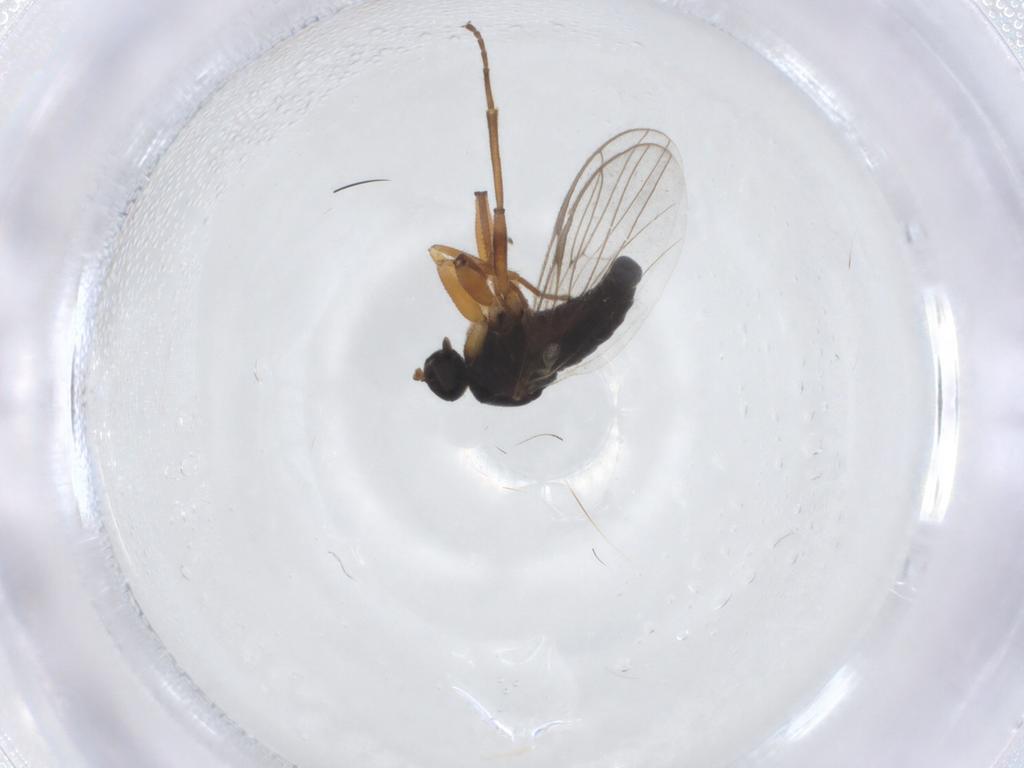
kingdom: Animalia
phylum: Arthropoda
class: Insecta
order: Diptera
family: Hybotidae
